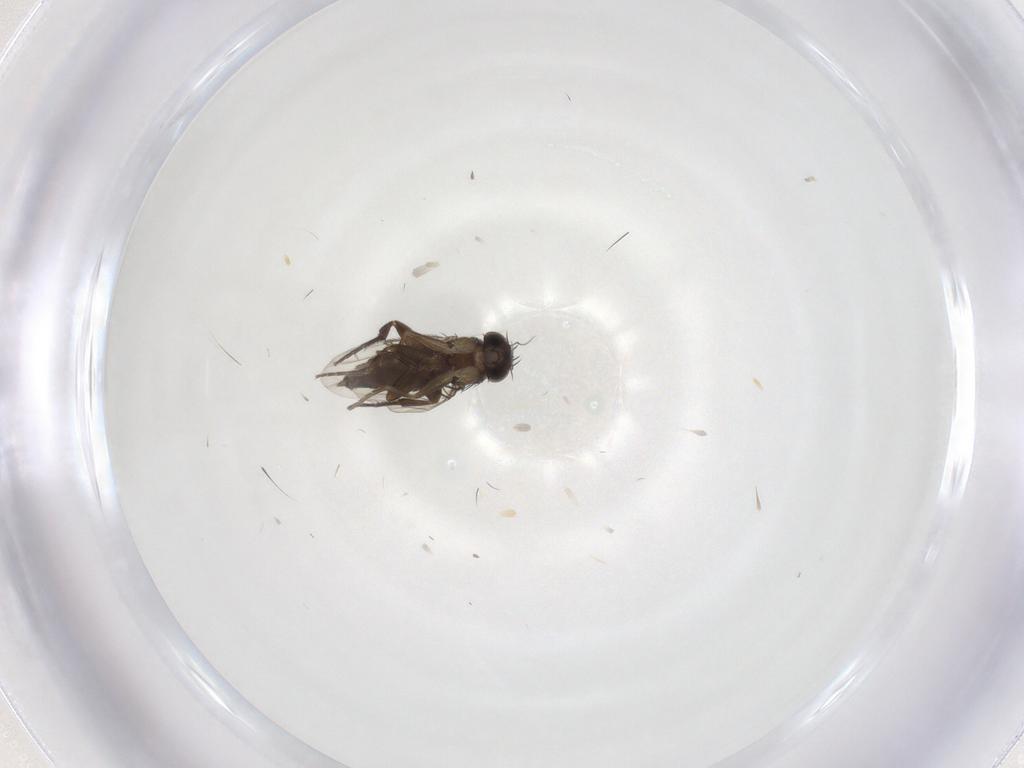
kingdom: Animalia
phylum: Arthropoda
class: Insecta
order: Diptera
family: Phoridae
